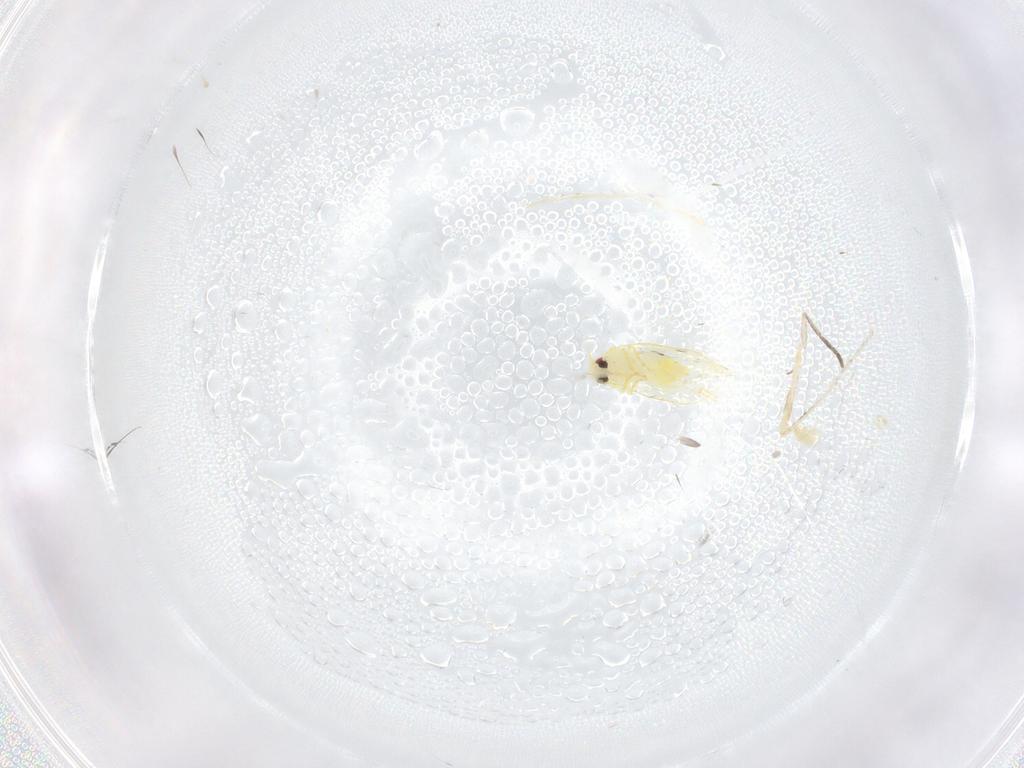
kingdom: Animalia
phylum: Arthropoda
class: Insecta
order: Diptera
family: Cecidomyiidae
